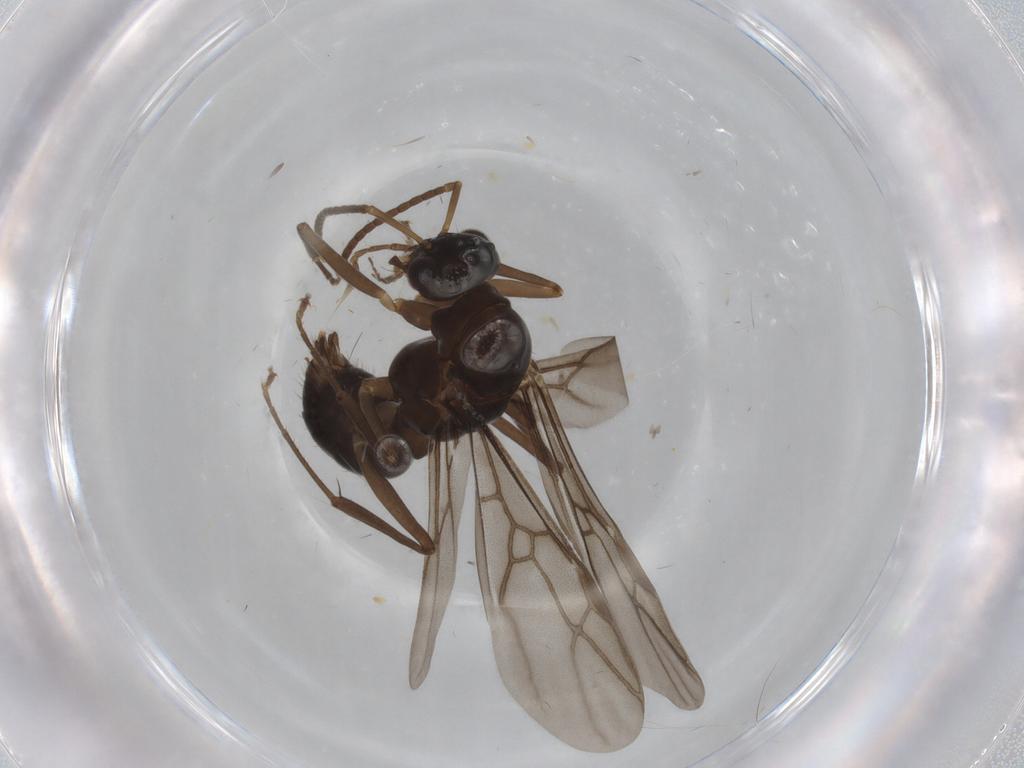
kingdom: Animalia
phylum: Arthropoda
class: Insecta
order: Hymenoptera
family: Formicidae
